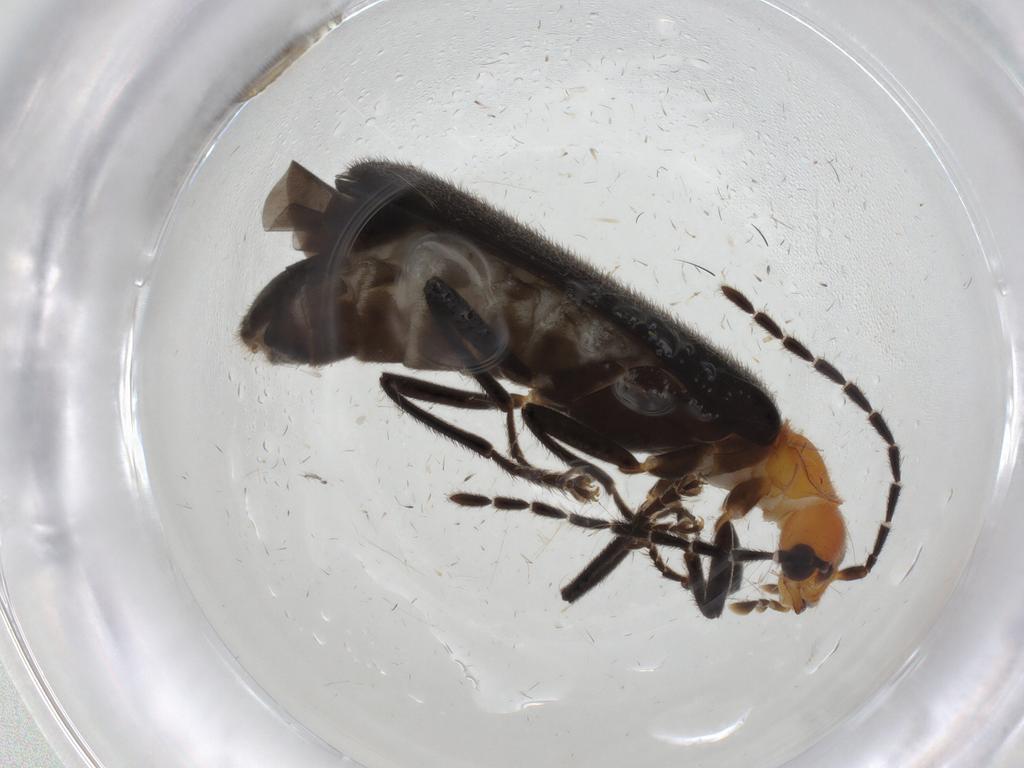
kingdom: Animalia
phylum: Arthropoda
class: Insecta
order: Coleoptera
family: Cantharidae
